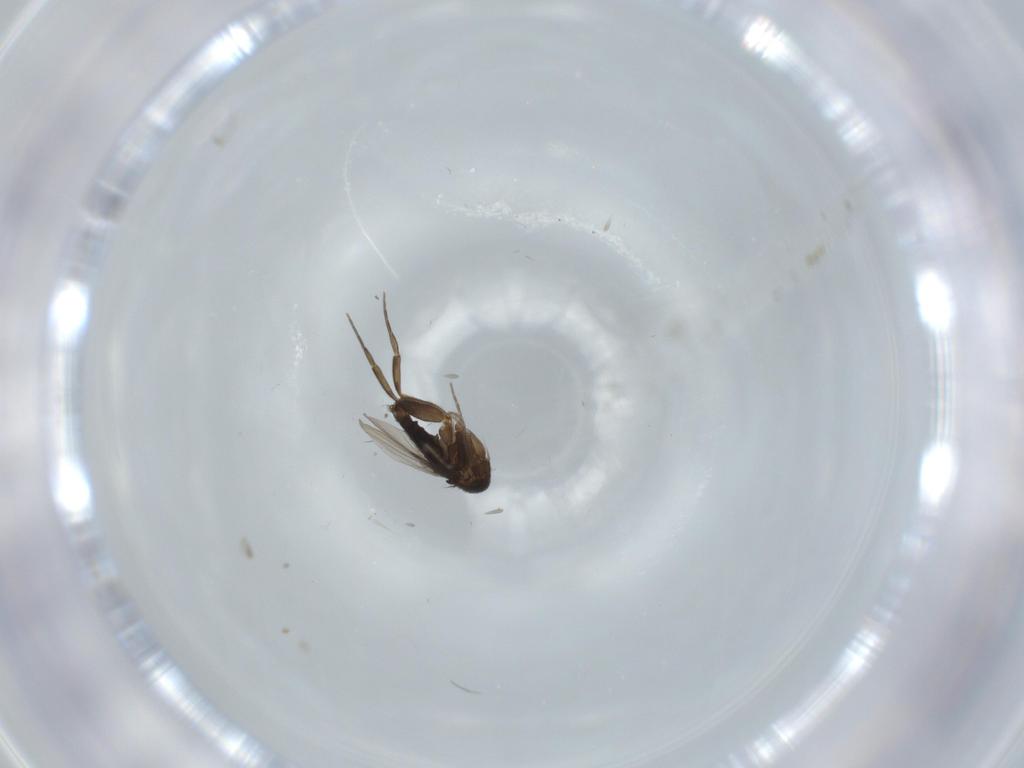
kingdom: Animalia
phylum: Arthropoda
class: Insecta
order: Diptera
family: Phoridae
